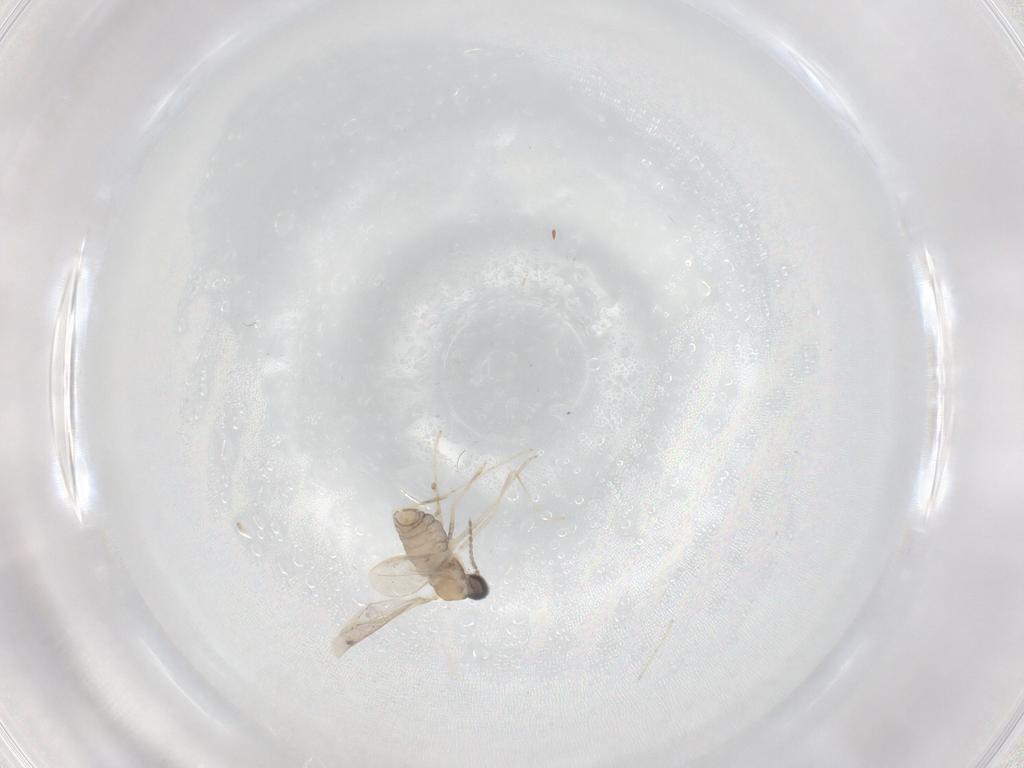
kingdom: Animalia
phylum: Arthropoda
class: Insecta
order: Diptera
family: Cecidomyiidae
